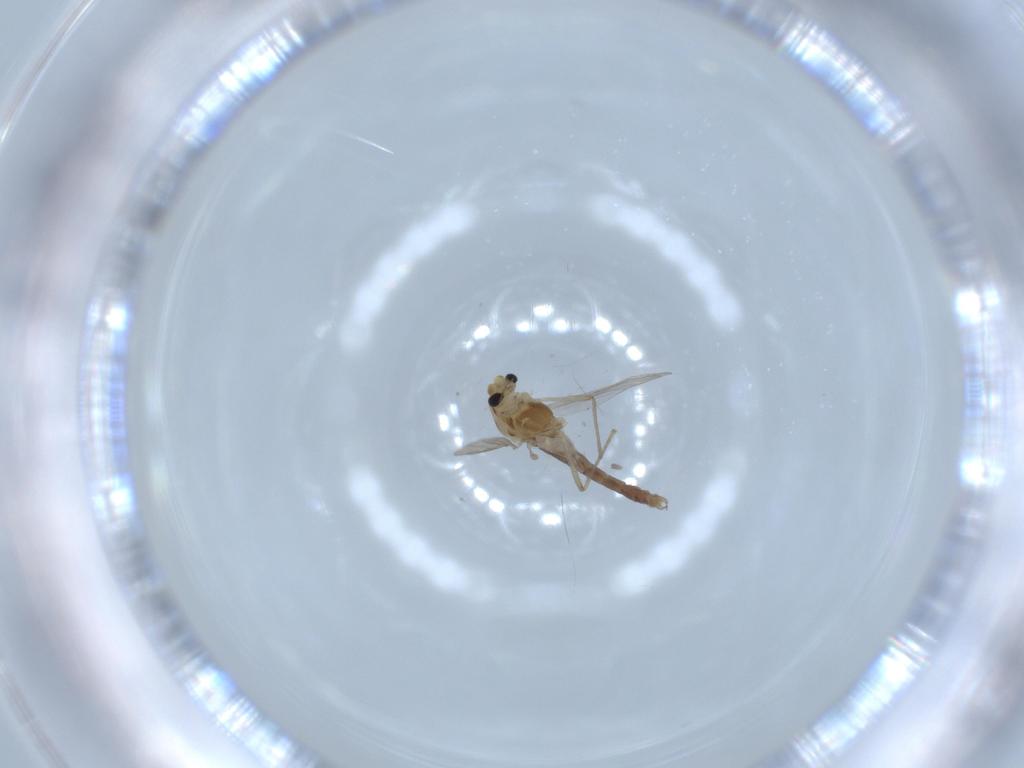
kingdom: Animalia
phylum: Arthropoda
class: Insecta
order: Diptera
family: Chironomidae
